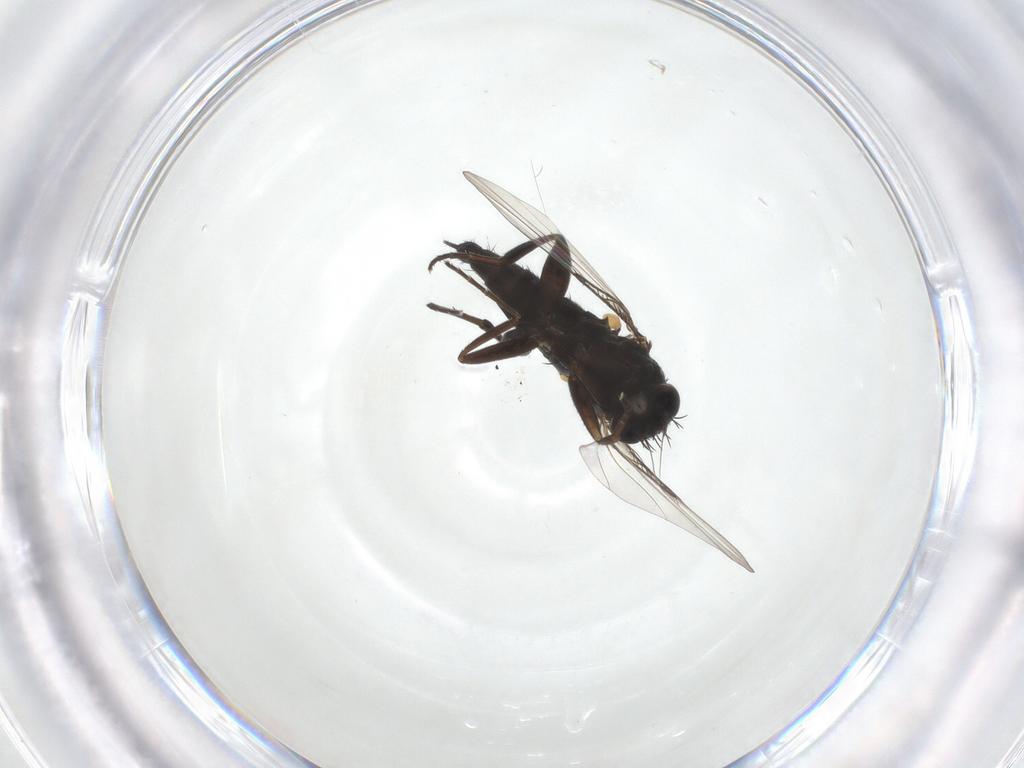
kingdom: Animalia
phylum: Arthropoda
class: Insecta
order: Diptera
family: Phoridae
